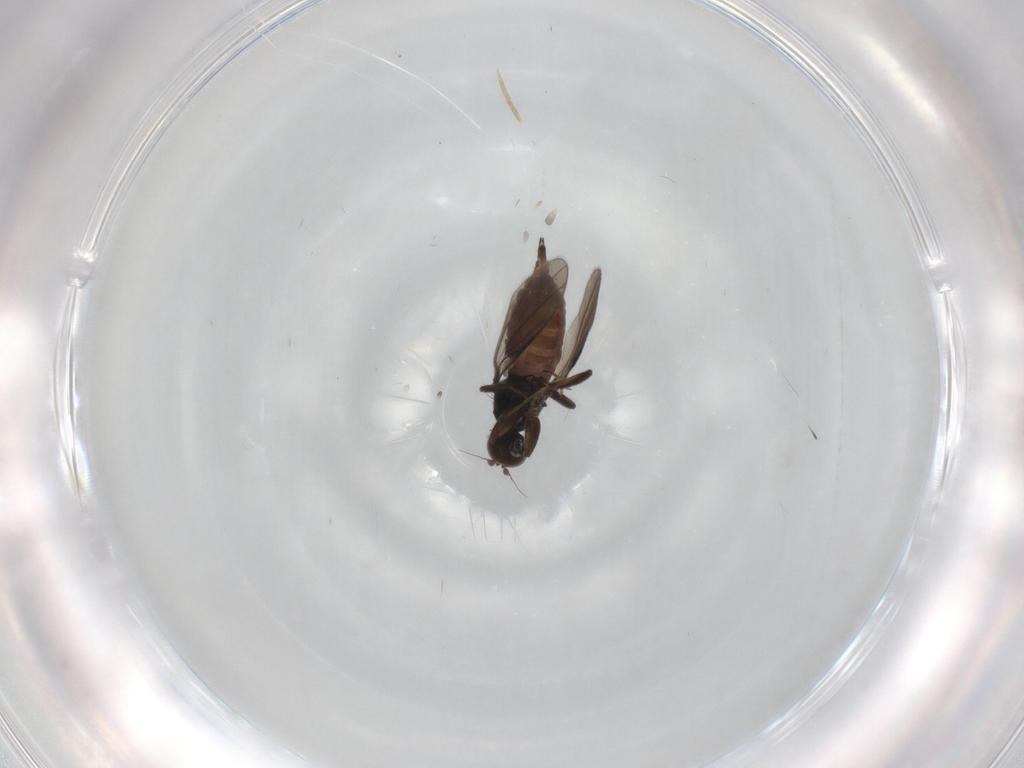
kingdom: Animalia
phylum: Arthropoda
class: Insecta
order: Diptera
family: Hybotidae
